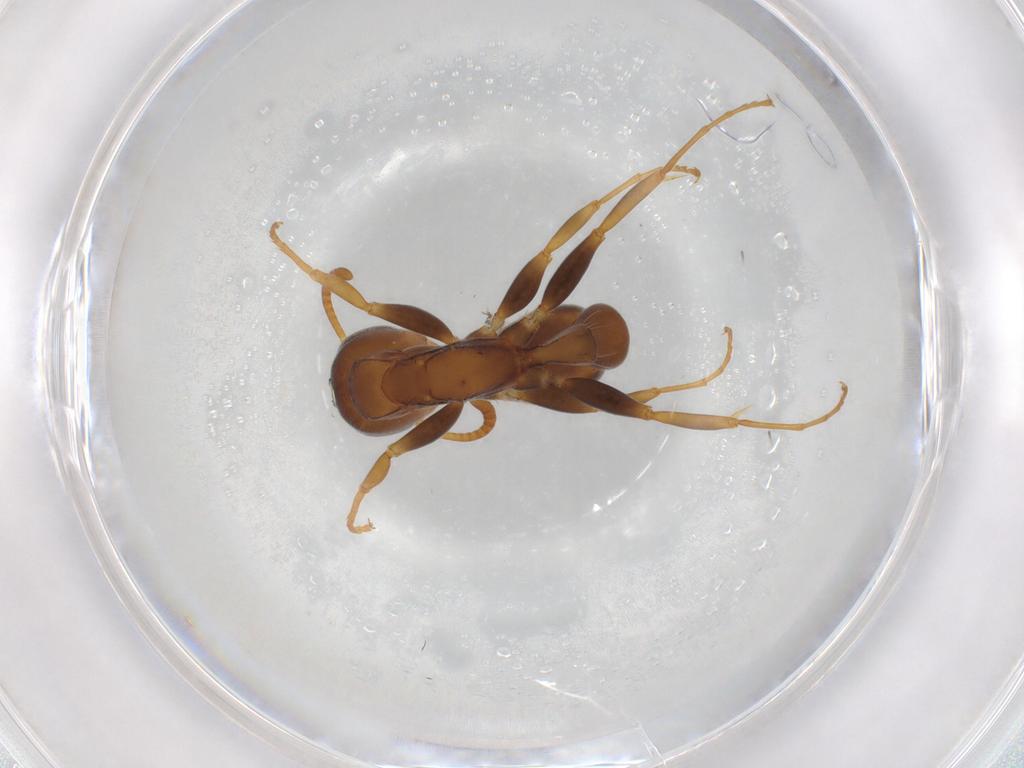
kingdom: Animalia
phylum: Arthropoda
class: Insecta
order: Hymenoptera
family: Formicidae
